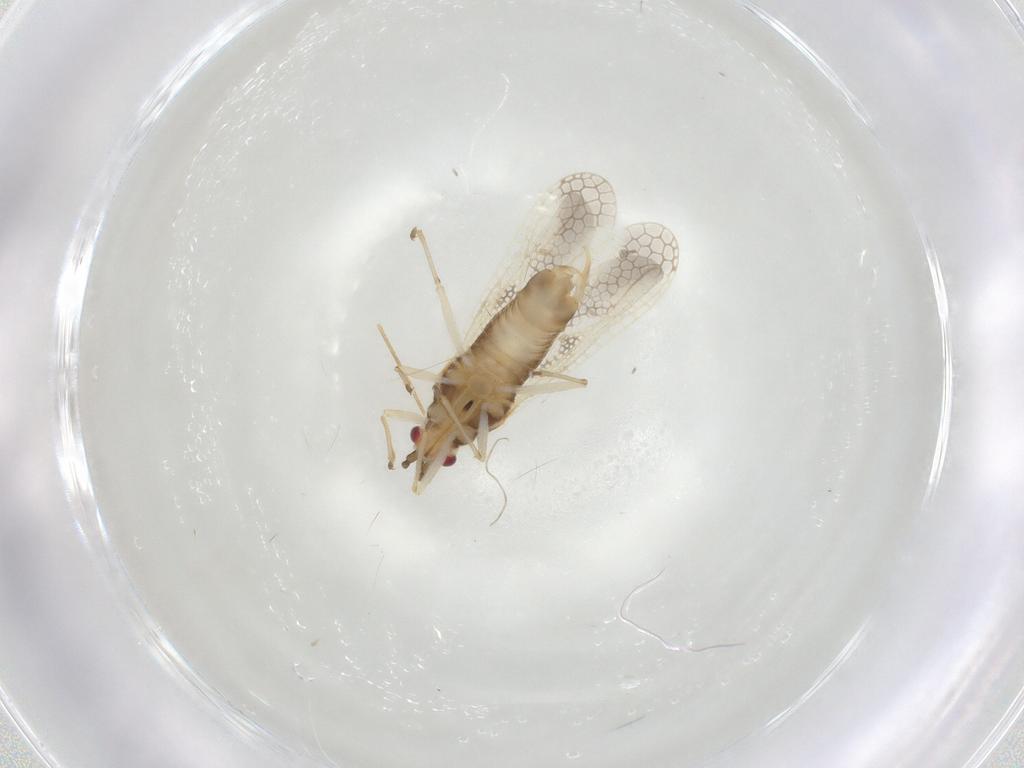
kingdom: Animalia
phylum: Arthropoda
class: Insecta
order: Hemiptera
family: Tingidae
